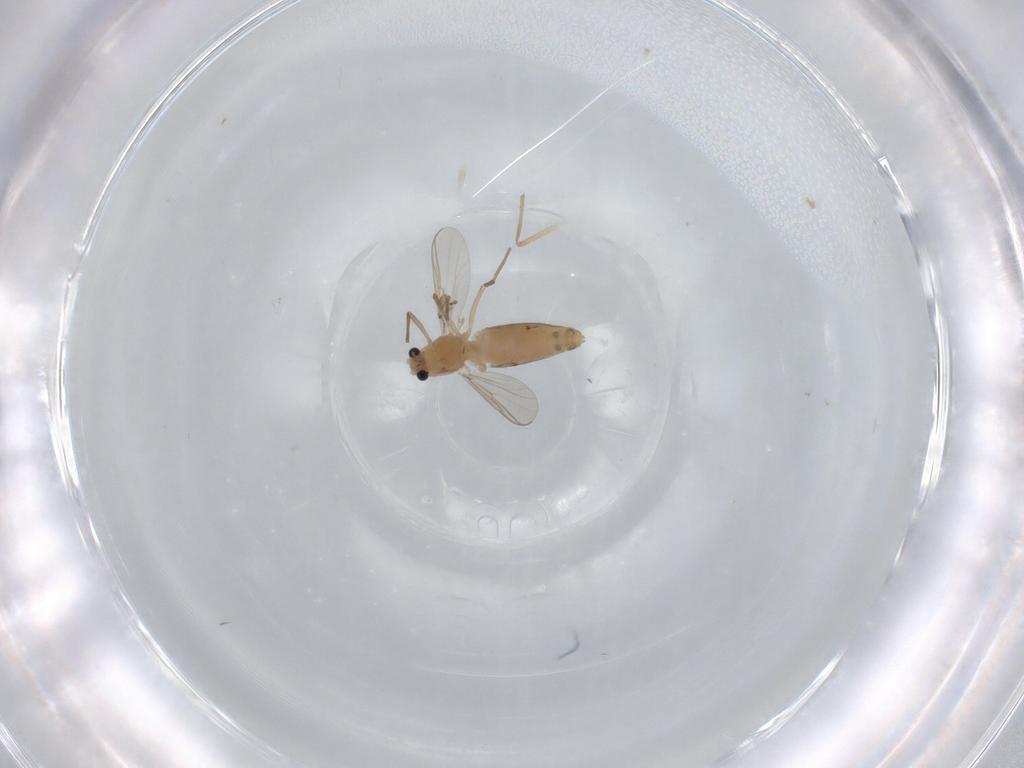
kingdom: Animalia
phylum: Arthropoda
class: Insecta
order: Diptera
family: Chironomidae
